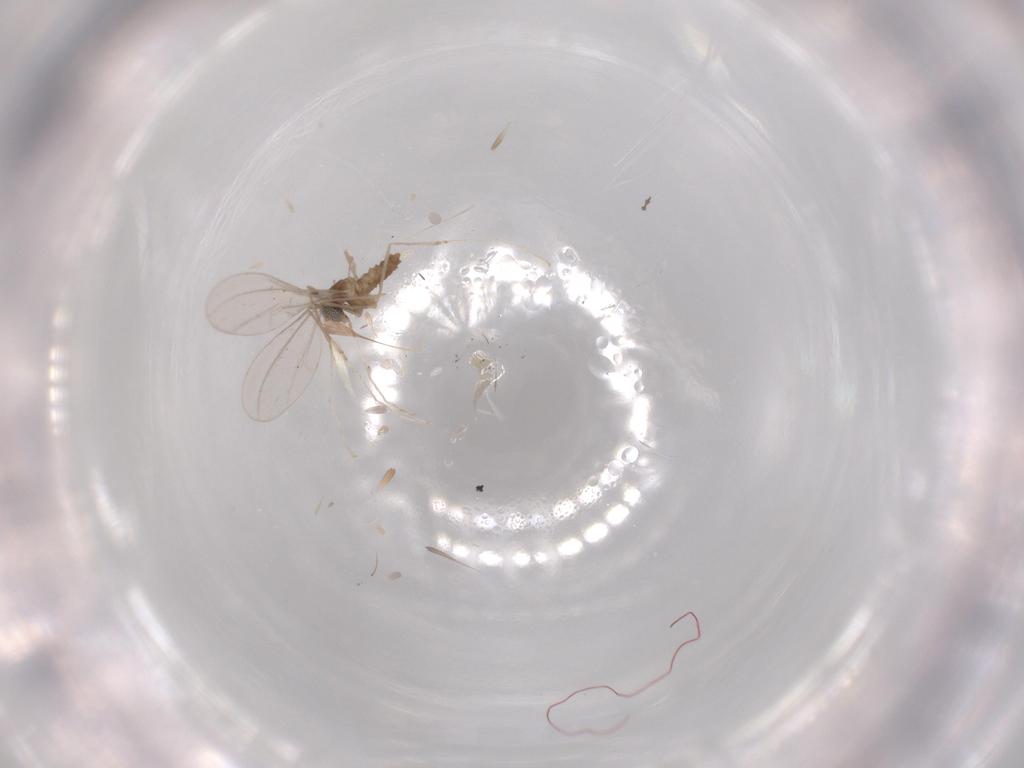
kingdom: Animalia
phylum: Arthropoda
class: Insecta
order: Diptera
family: Cecidomyiidae
